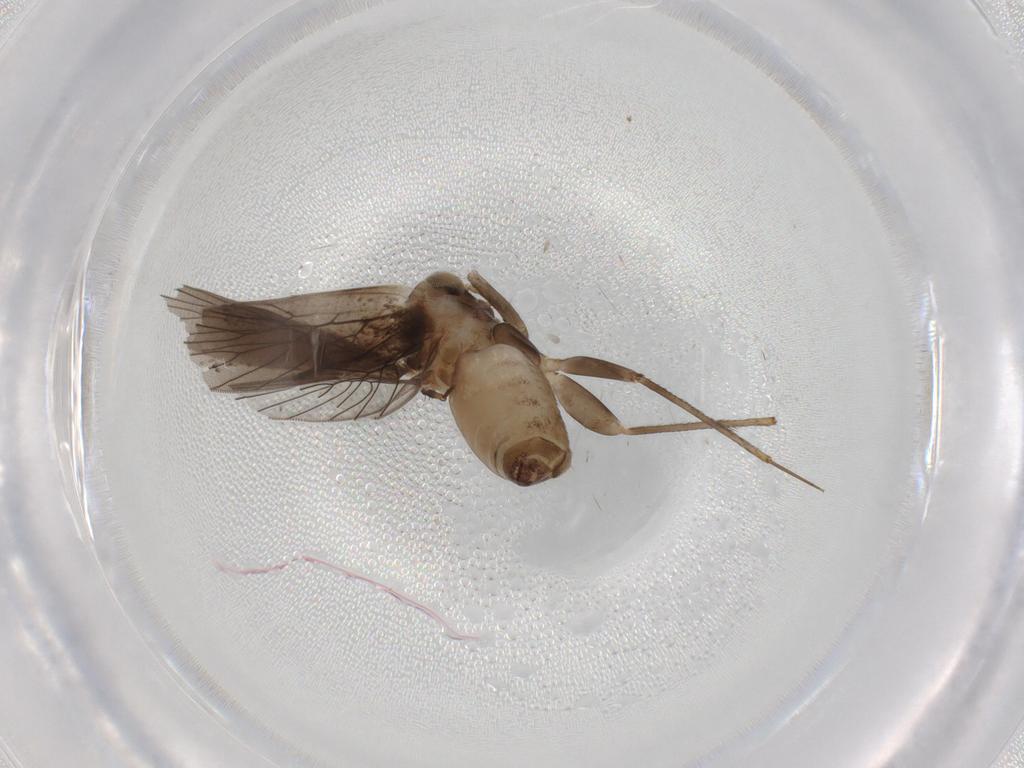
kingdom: Animalia
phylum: Arthropoda
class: Insecta
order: Psocodea
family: Lepidopsocidae
